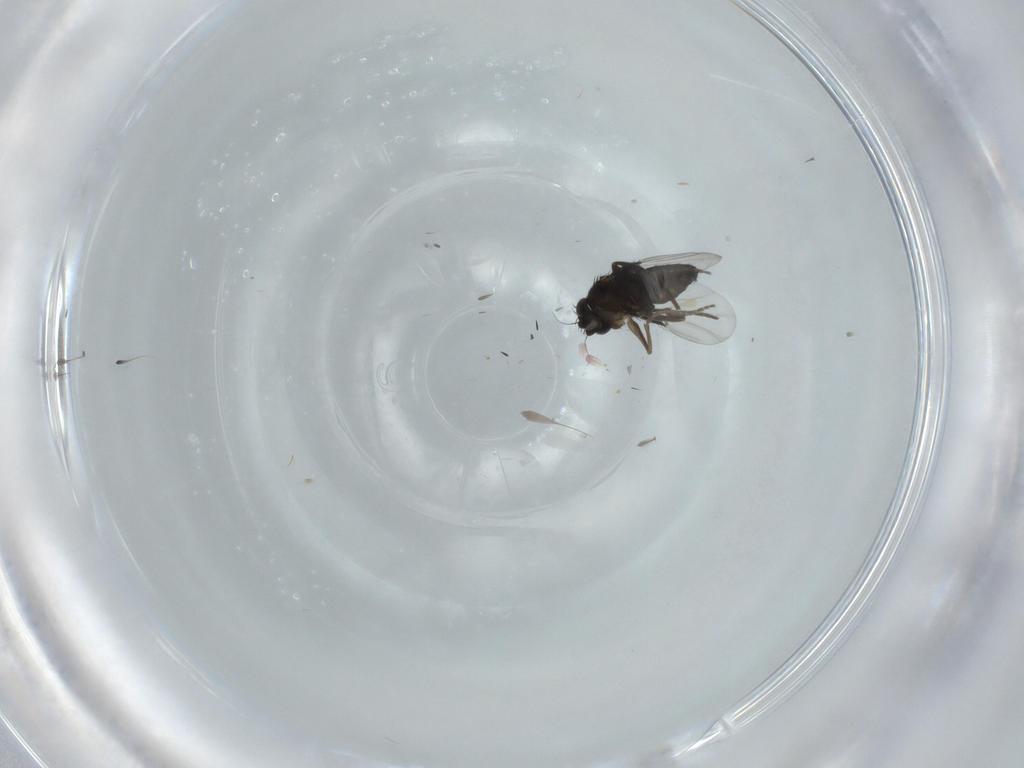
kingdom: Animalia
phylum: Arthropoda
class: Insecta
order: Diptera
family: Phoridae
